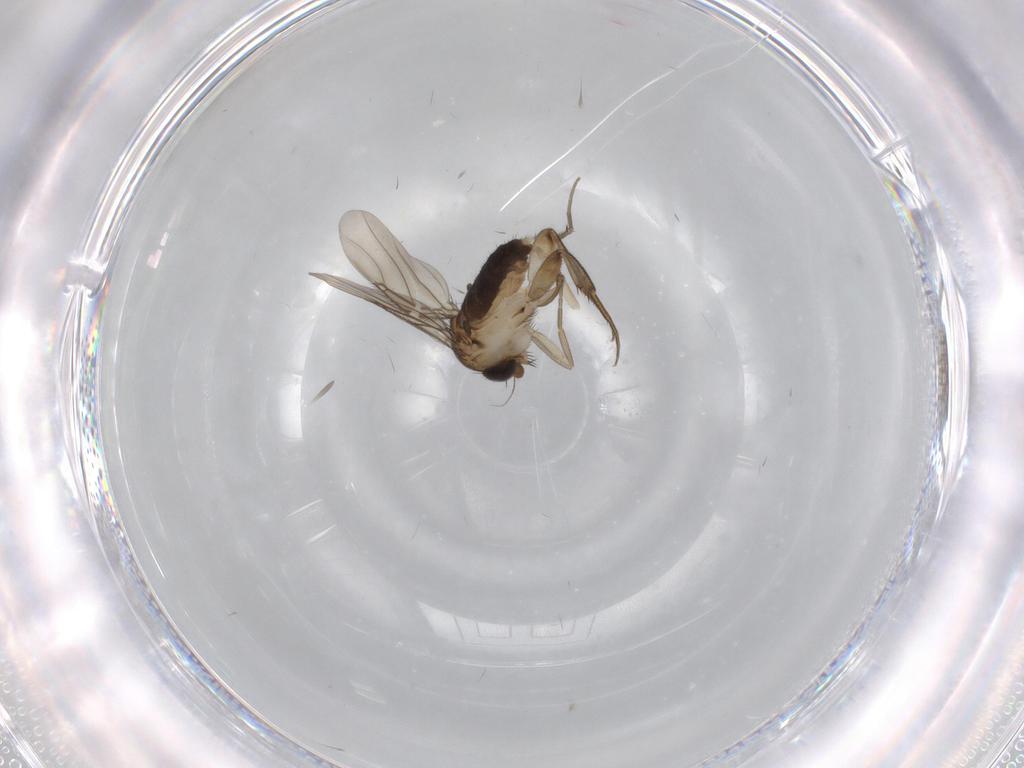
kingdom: Animalia
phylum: Arthropoda
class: Insecta
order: Diptera
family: Phoridae
